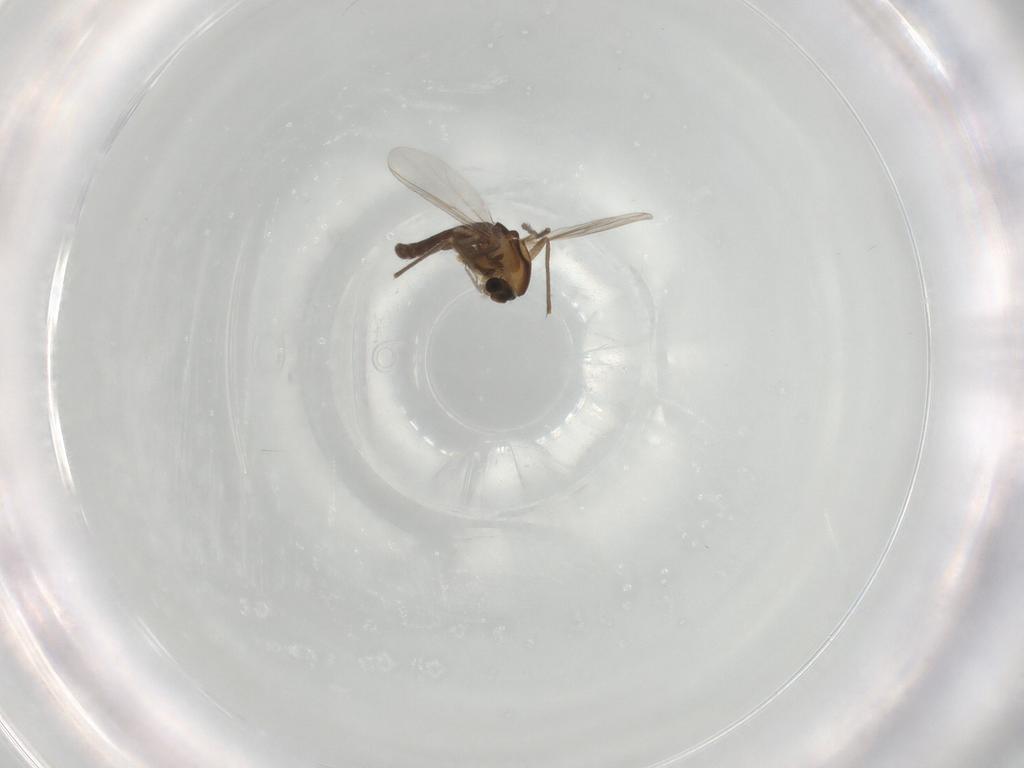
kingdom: Animalia
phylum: Arthropoda
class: Insecta
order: Diptera
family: Chironomidae
